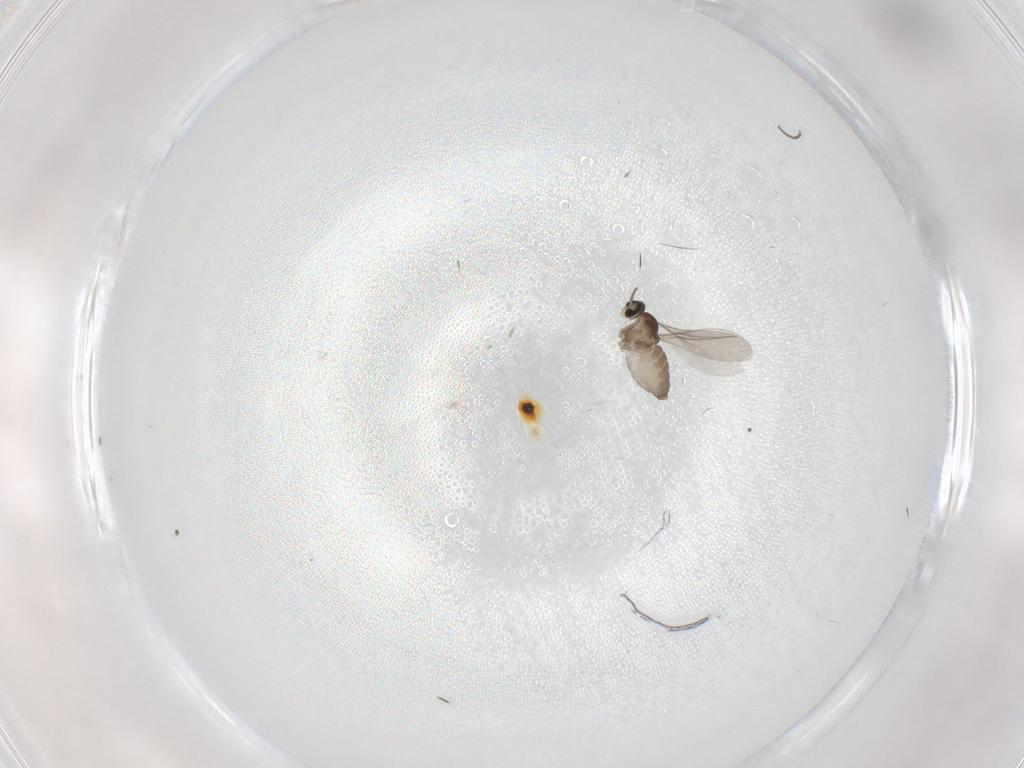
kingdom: Animalia
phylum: Arthropoda
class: Insecta
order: Diptera
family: Cecidomyiidae
